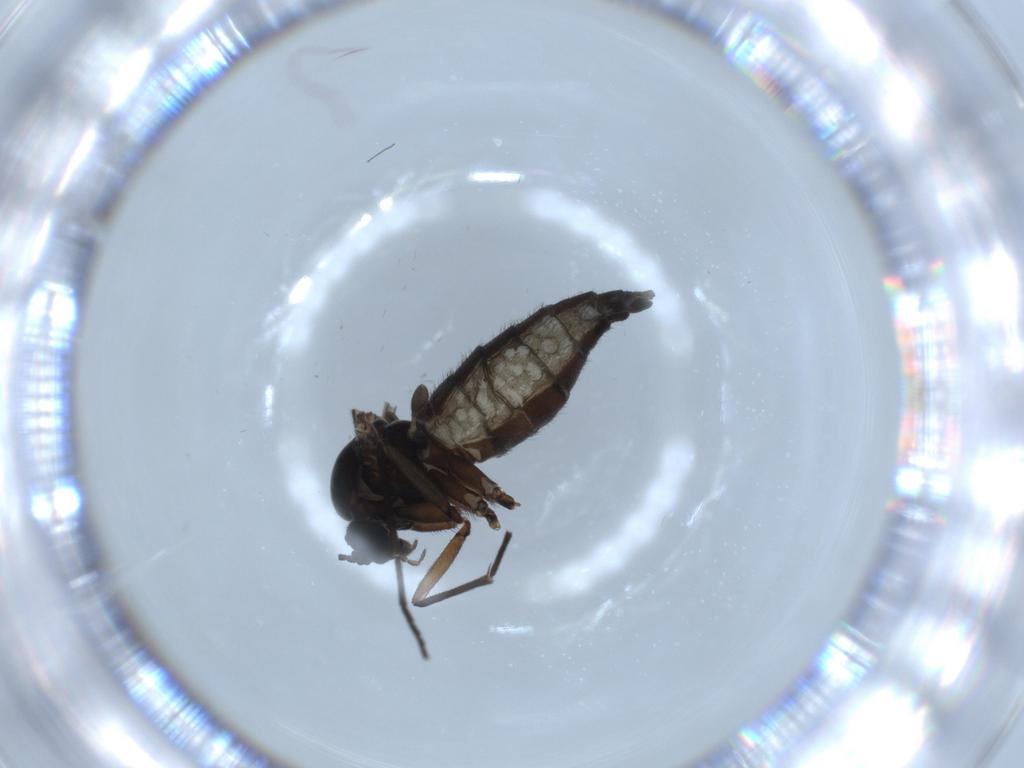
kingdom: Animalia
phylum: Arthropoda
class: Insecta
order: Diptera
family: Sciaridae
